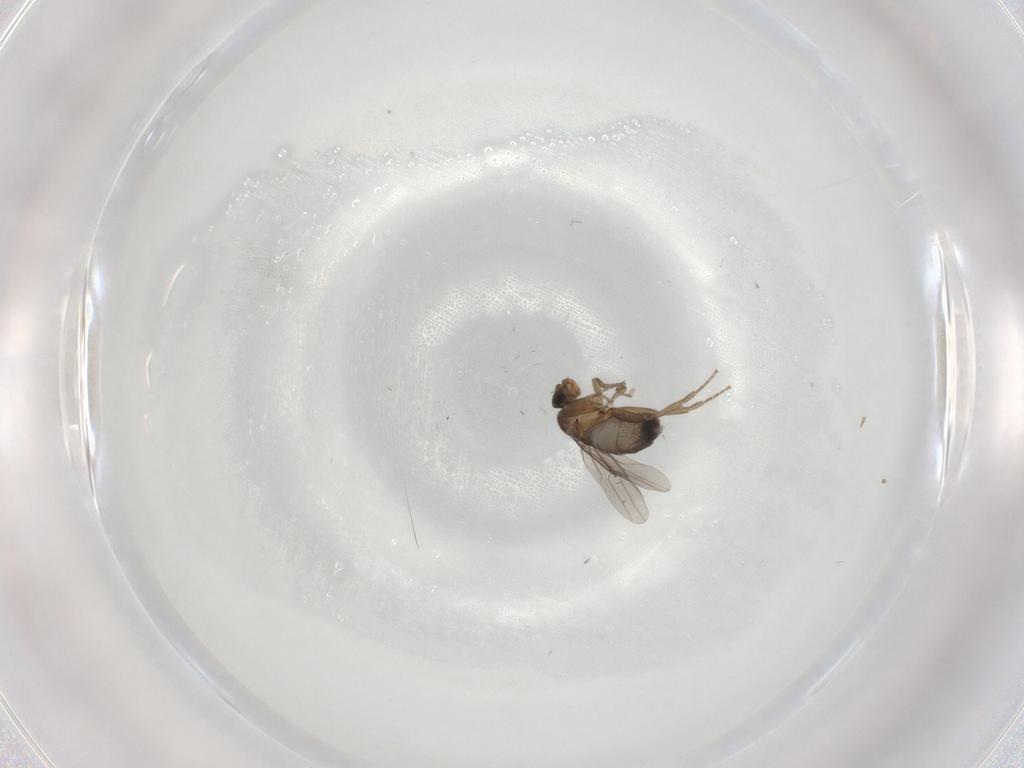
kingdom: Animalia
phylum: Arthropoda
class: Insecta
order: Diptera
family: Phoridae
